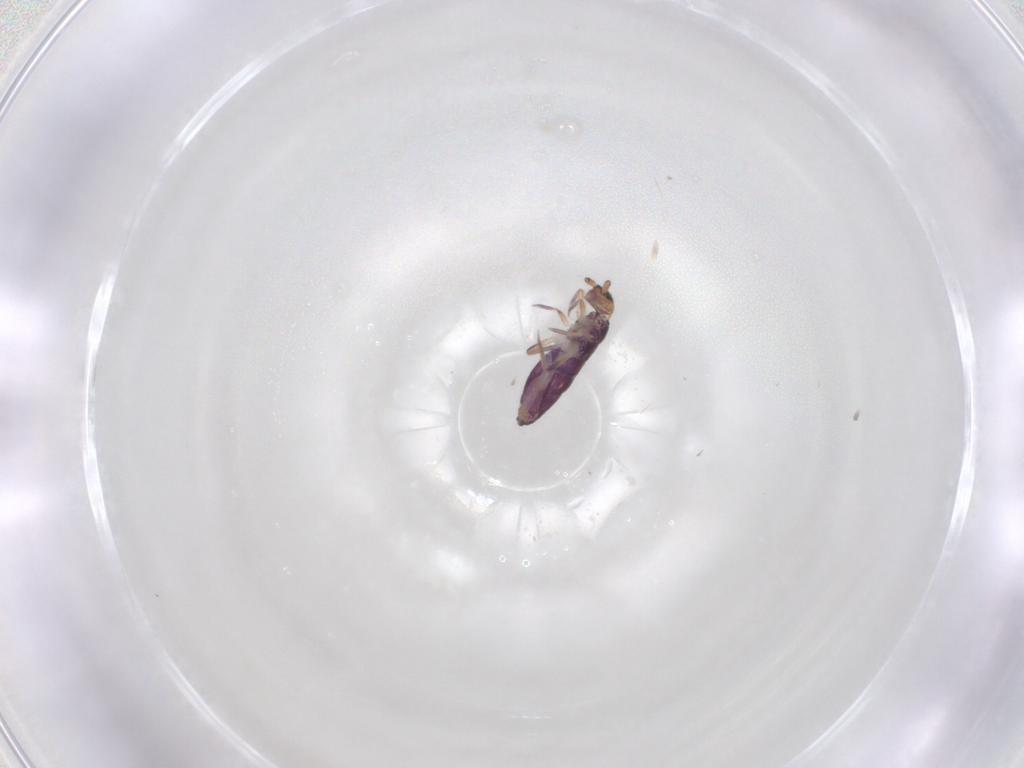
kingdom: Animalia
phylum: Arthropoda
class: Collembola
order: Entomobryomorpha
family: Entomobryidae
